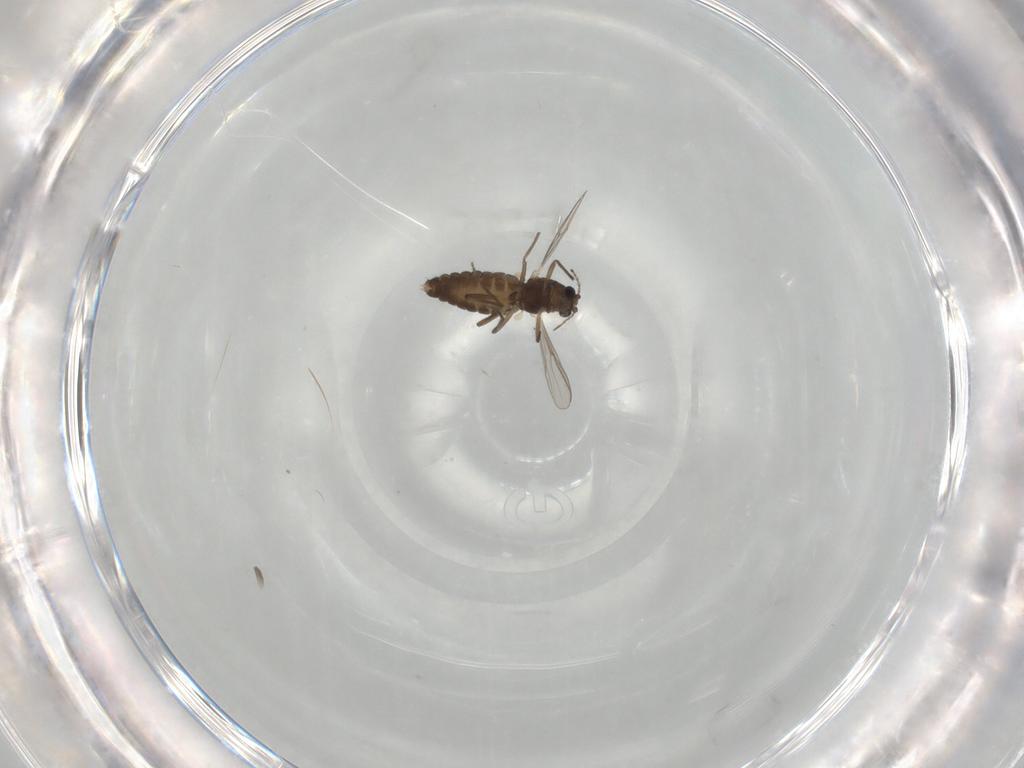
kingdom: Animalia
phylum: Arthropoda
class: Insecta
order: Diptera
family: Chironomidae
